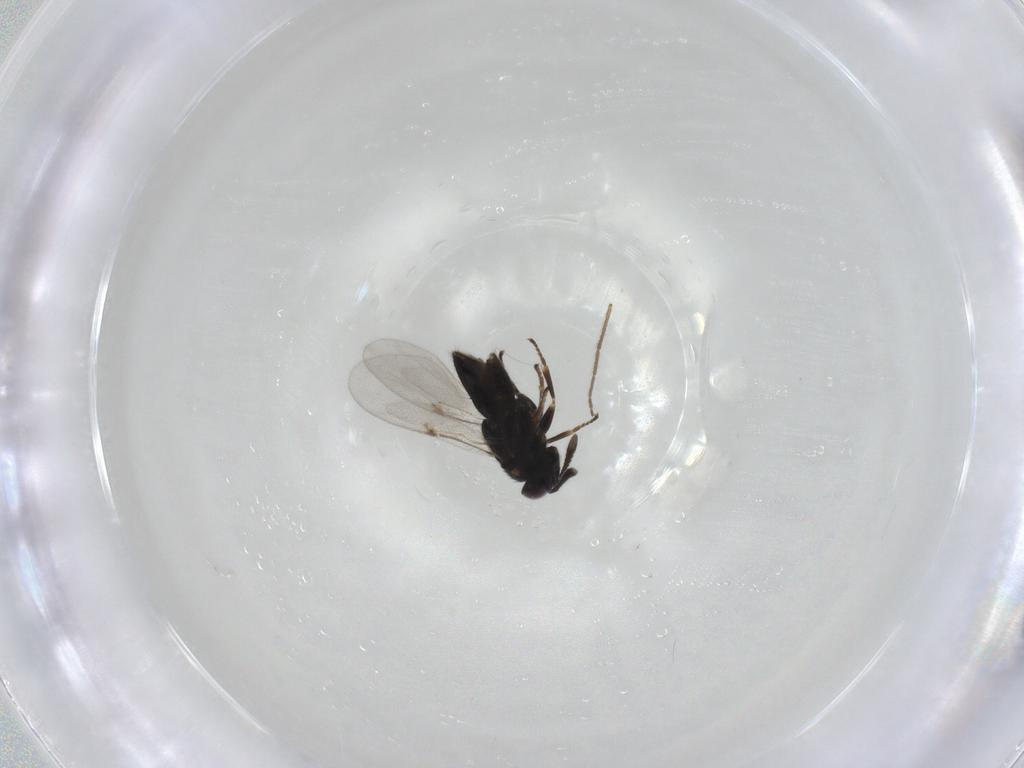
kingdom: Animalia
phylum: Arthropoda
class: Insecta
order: Hymenoptera
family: Encyrtidae
